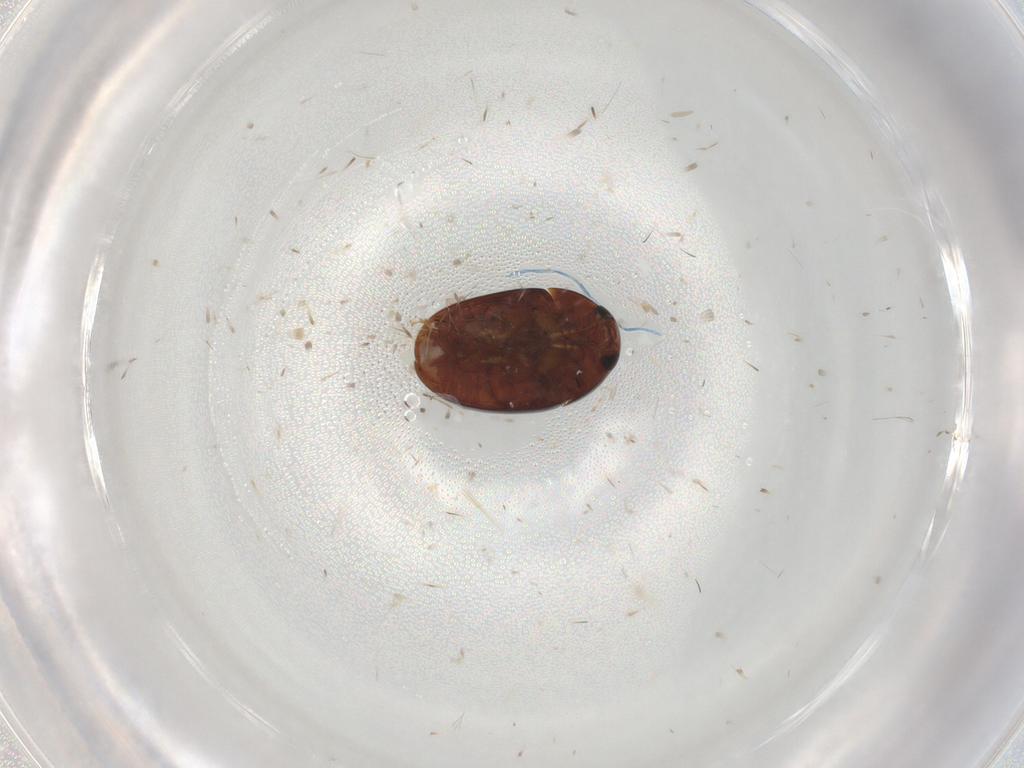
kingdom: Animalia
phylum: Arthropoda
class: Insecta
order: Coleoptera
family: Phalacridae
